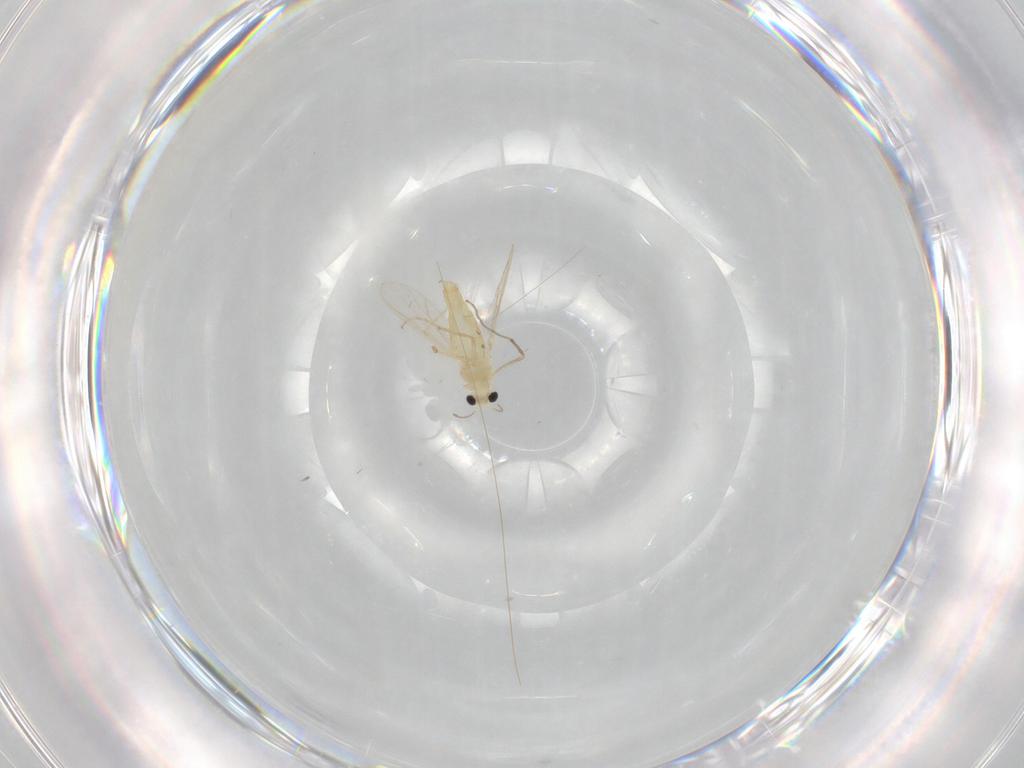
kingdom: Animalia
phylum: Arthropoda
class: Insecta
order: Diptera
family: Chironomidae
